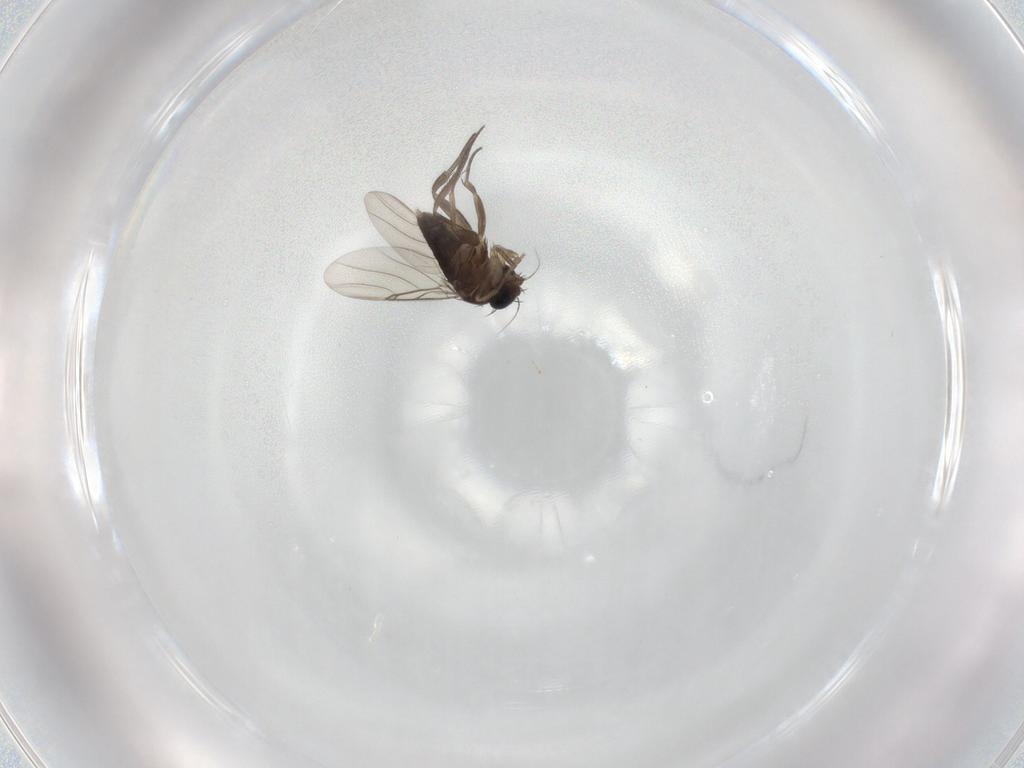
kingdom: Animalia
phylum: Arthropoda
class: Insecta
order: Diptera
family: Phoridae
